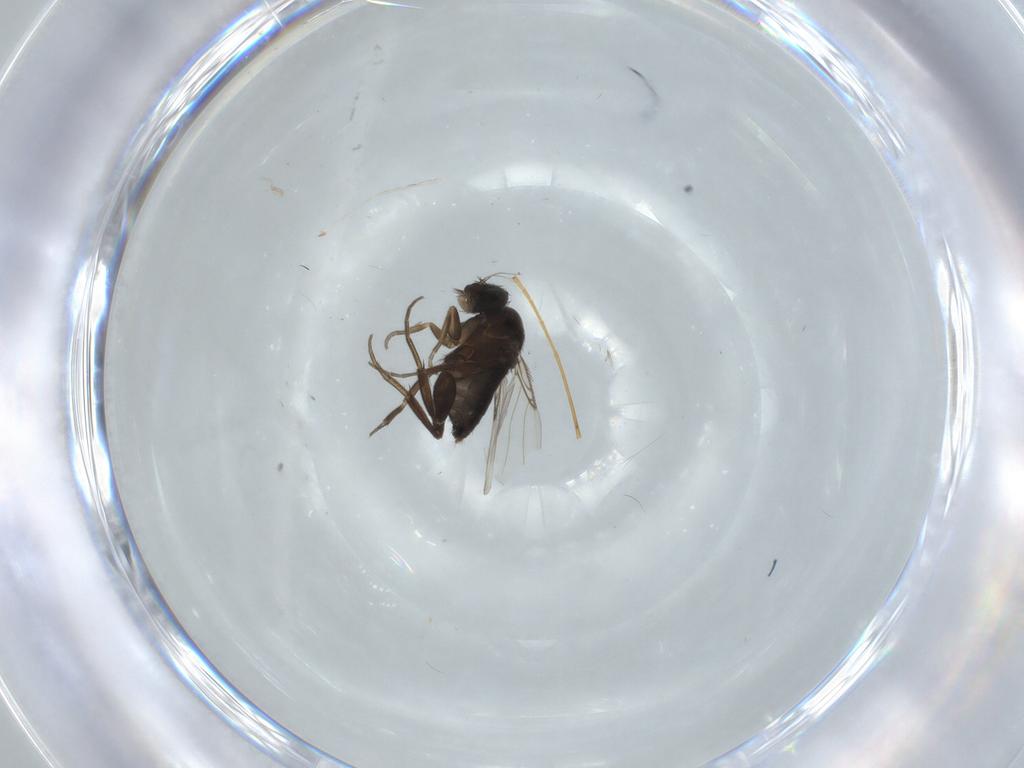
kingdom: Animalia
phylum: Arthropoda
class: Insecta
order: Diptera
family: Phoridae
